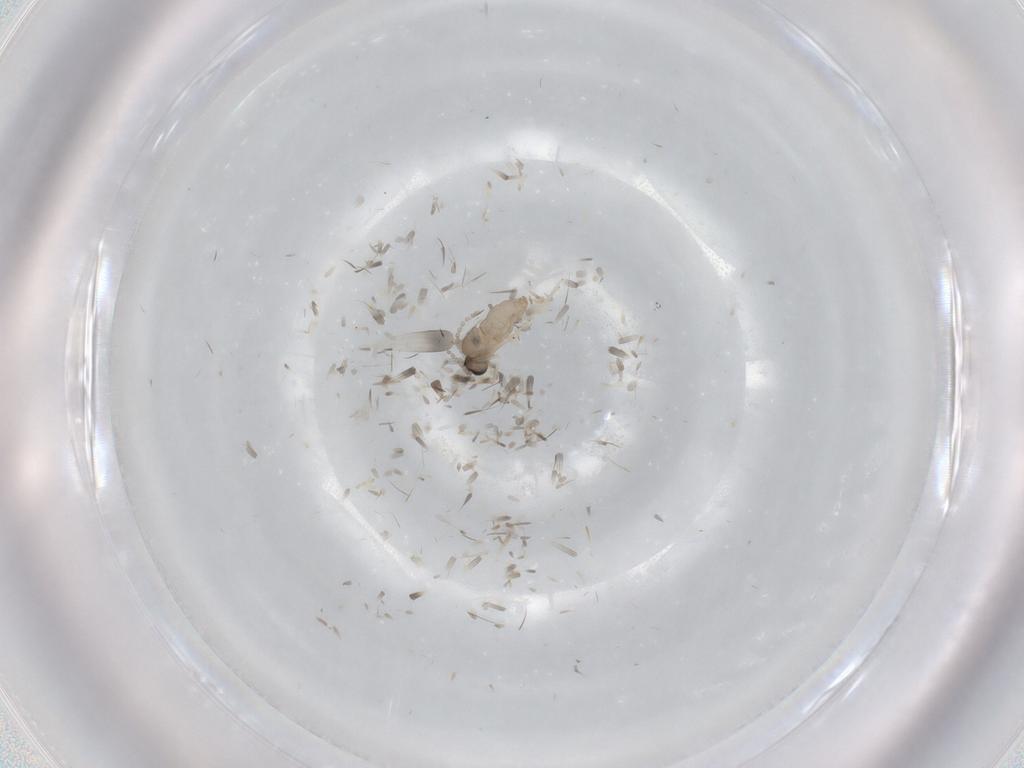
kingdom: Animalia
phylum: Arthropoda
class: Insecta
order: Diptera
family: Cecidomyiidae
